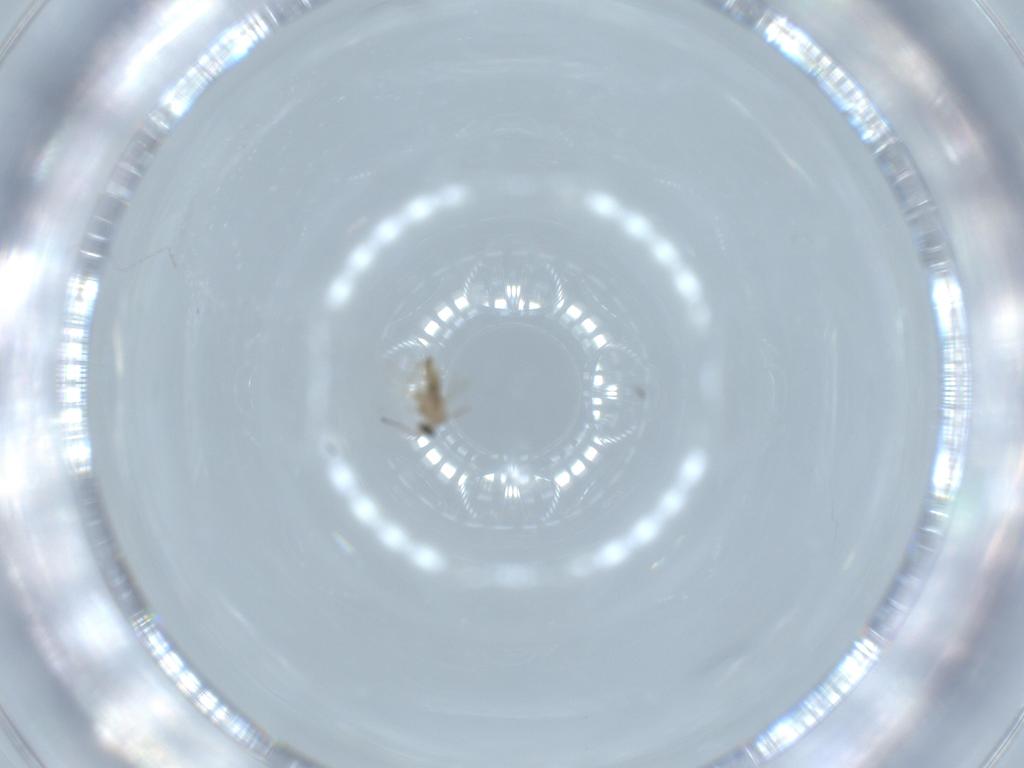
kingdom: Animalia
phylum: Arthropoda
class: Insecta
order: Diptera
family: Cecidomyiidae
